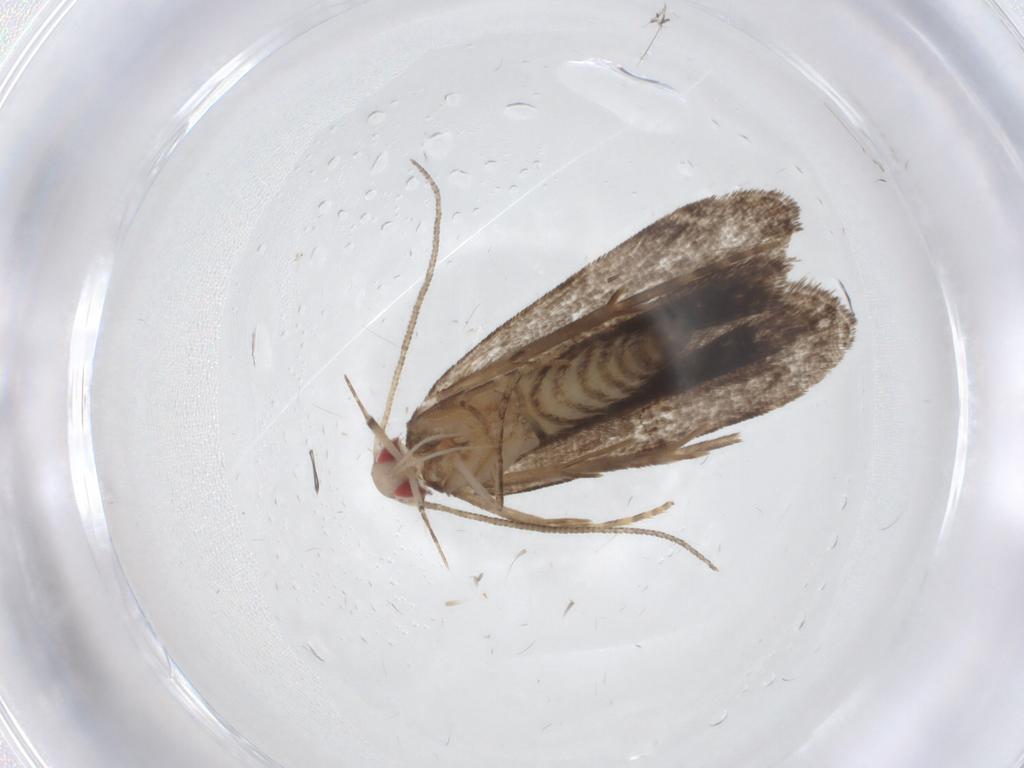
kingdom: Animalia
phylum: Arthropoda
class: Insecta
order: Lepidoptera
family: Gelechiidae
